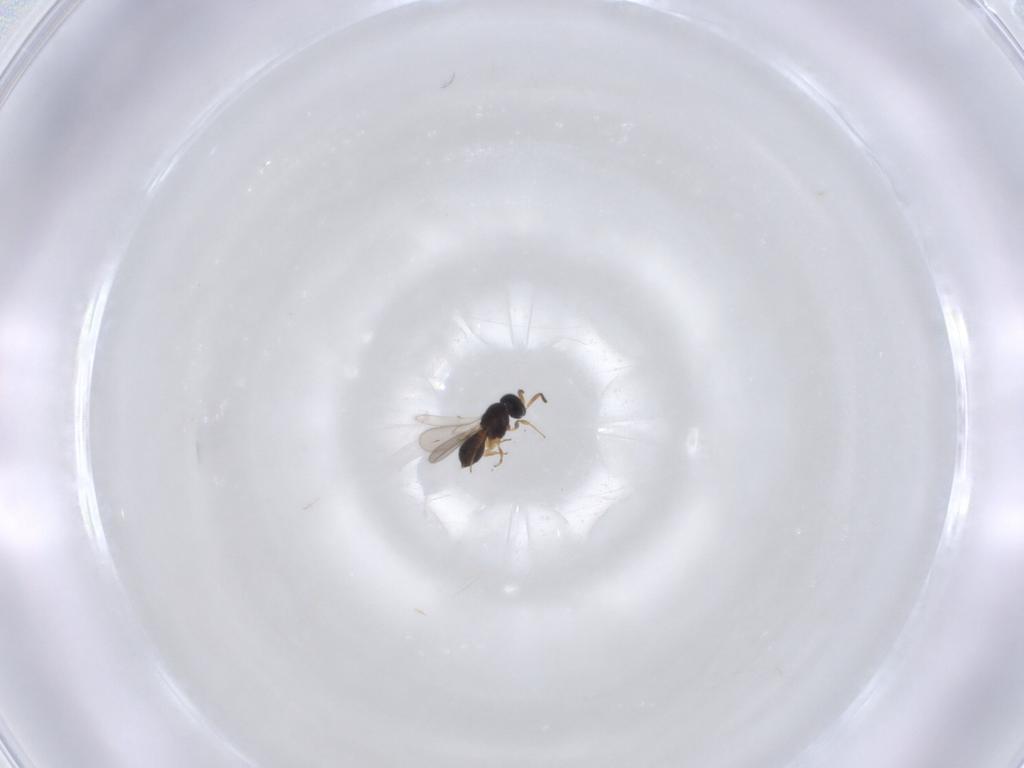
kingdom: Animalia
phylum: Arthropoda
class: Insecta
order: Hymenoptera
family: Scelionidae
